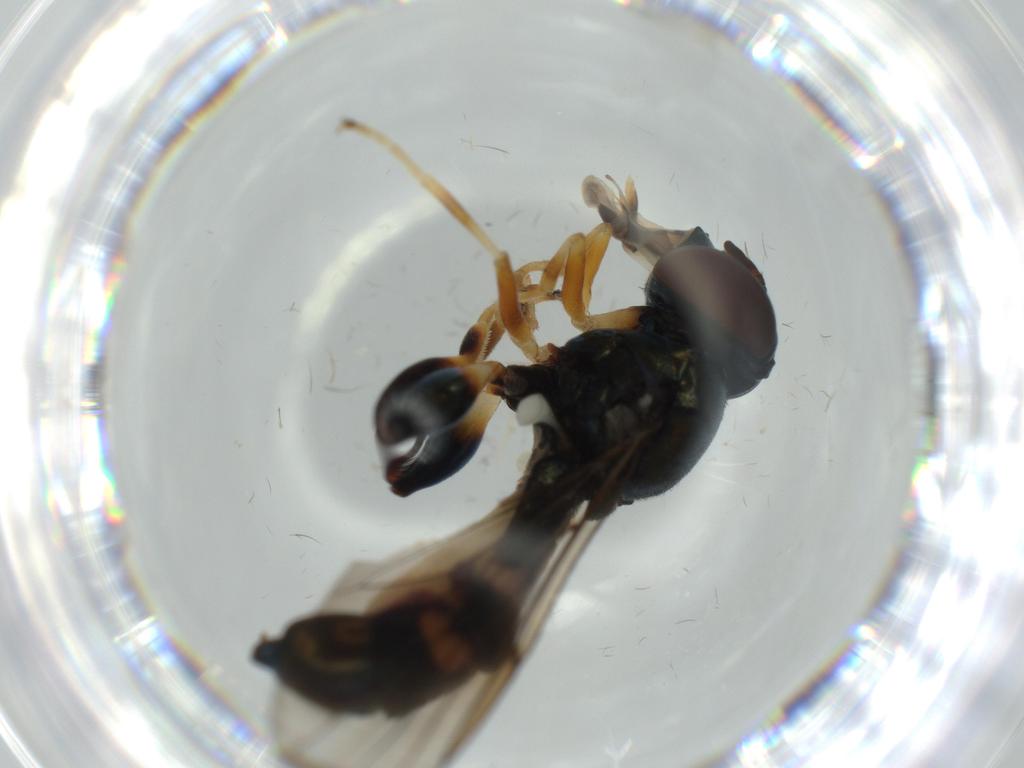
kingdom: Animalia
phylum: Arthropoda
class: Insecta
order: Diptera
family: Syrphidae
